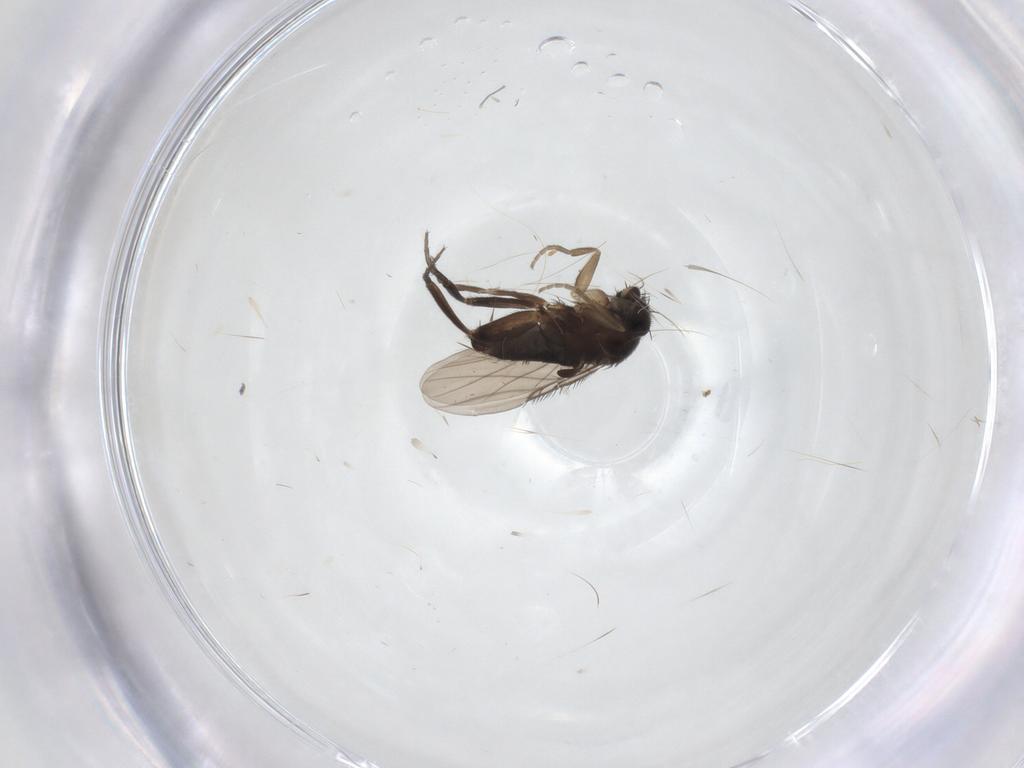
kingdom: Animalia
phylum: Arthropoda
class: Insecta
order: Diptera
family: Phoridae
